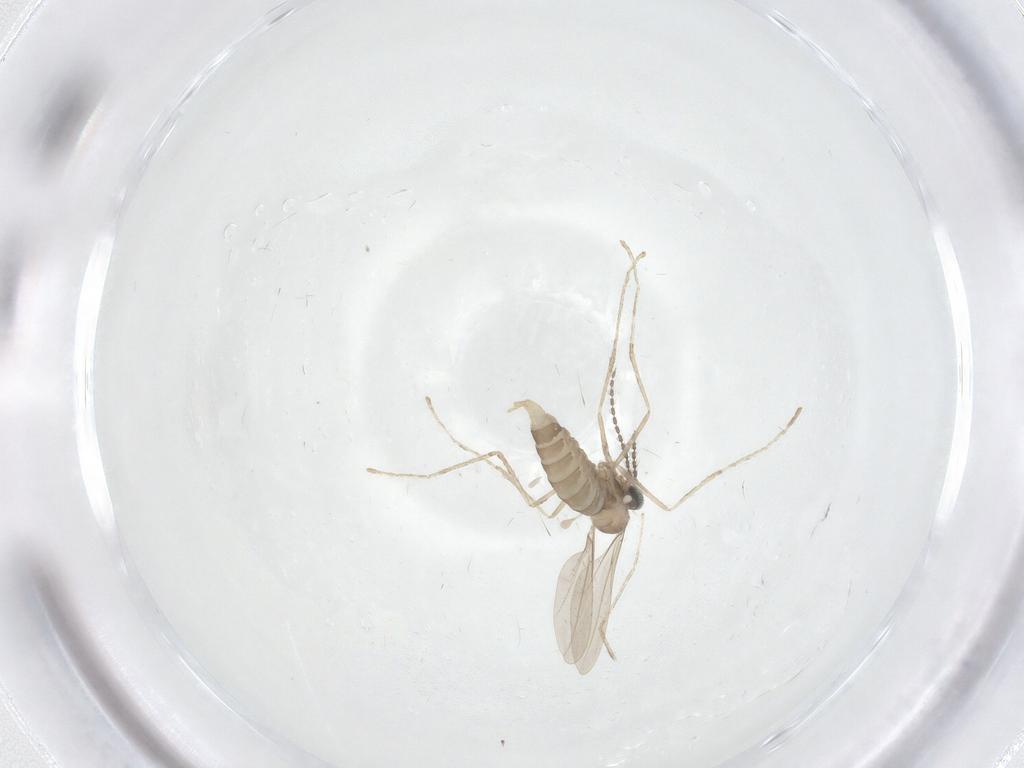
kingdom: Animalia
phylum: Arthropoda
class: Insecta
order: Diptera
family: Cecidomyiidae
